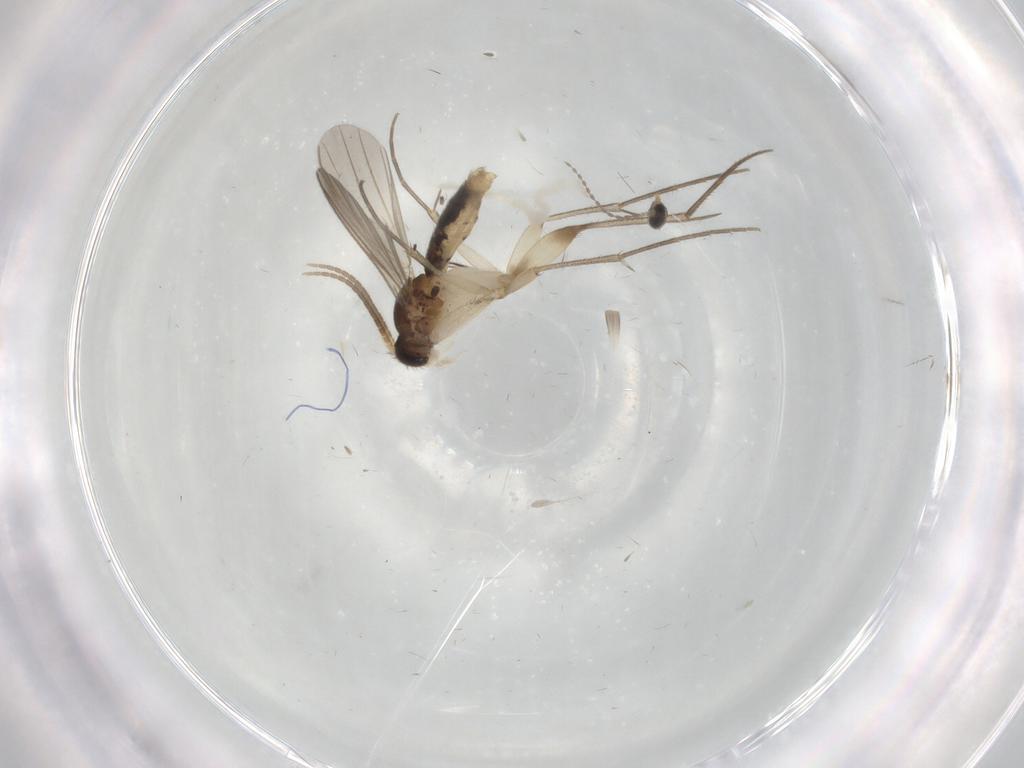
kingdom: Animalia
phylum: Arthropoda
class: Insecta
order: Diptera
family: Mycetophilidae
